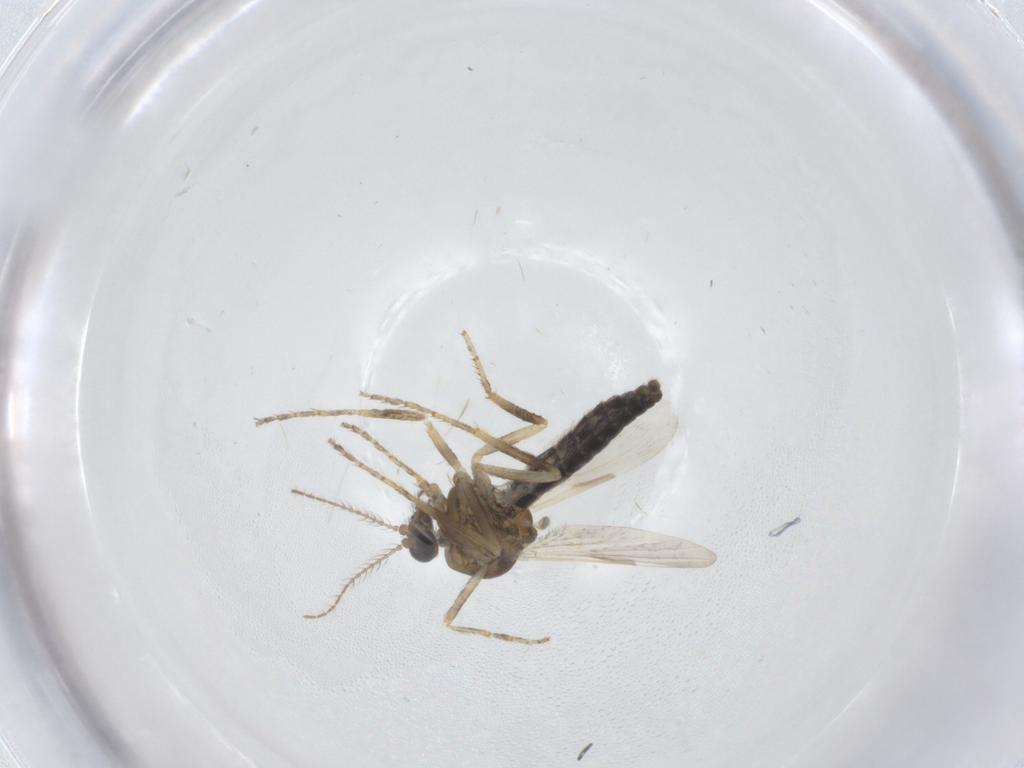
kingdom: Animalia
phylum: Arthropoda
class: Insecta
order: Diptera
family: Ceratopogonidae
